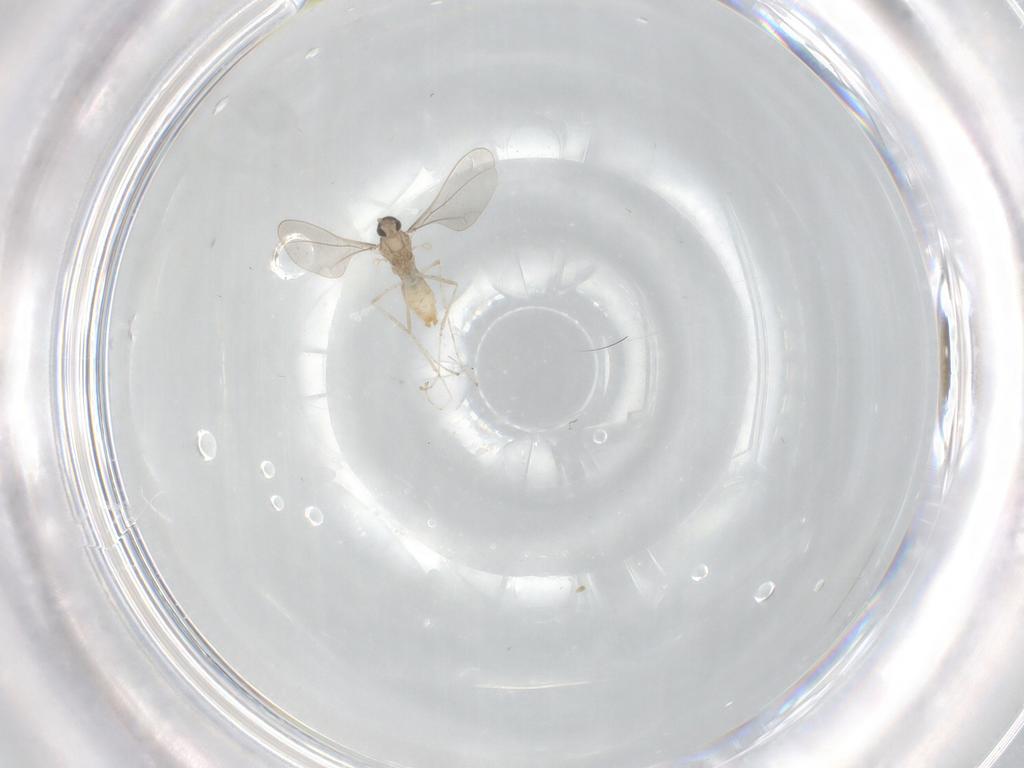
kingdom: Animalia
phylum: Arthropoda
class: Insecta
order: Diptera
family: Cecidomyiidae
